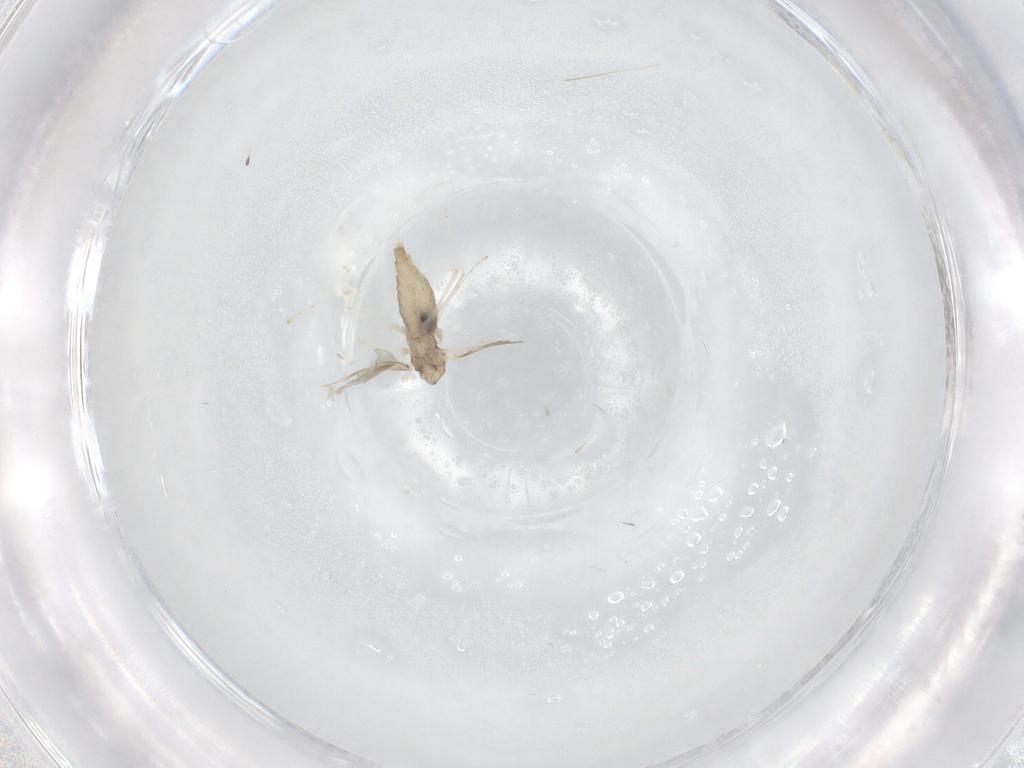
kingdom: Animalia
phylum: Arthropoda
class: Insecta
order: Diptera
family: Cecidomyiidae
